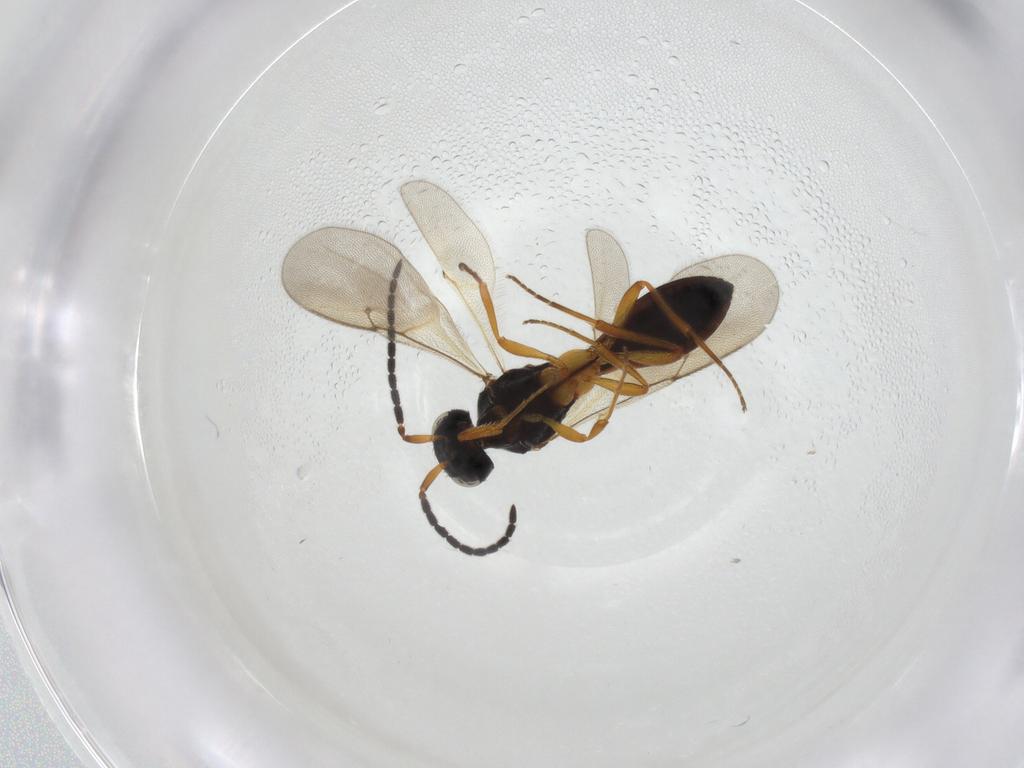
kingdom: Animalia
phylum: Arthropoda
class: Insecta
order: Hymenoptera
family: Scelionidae
